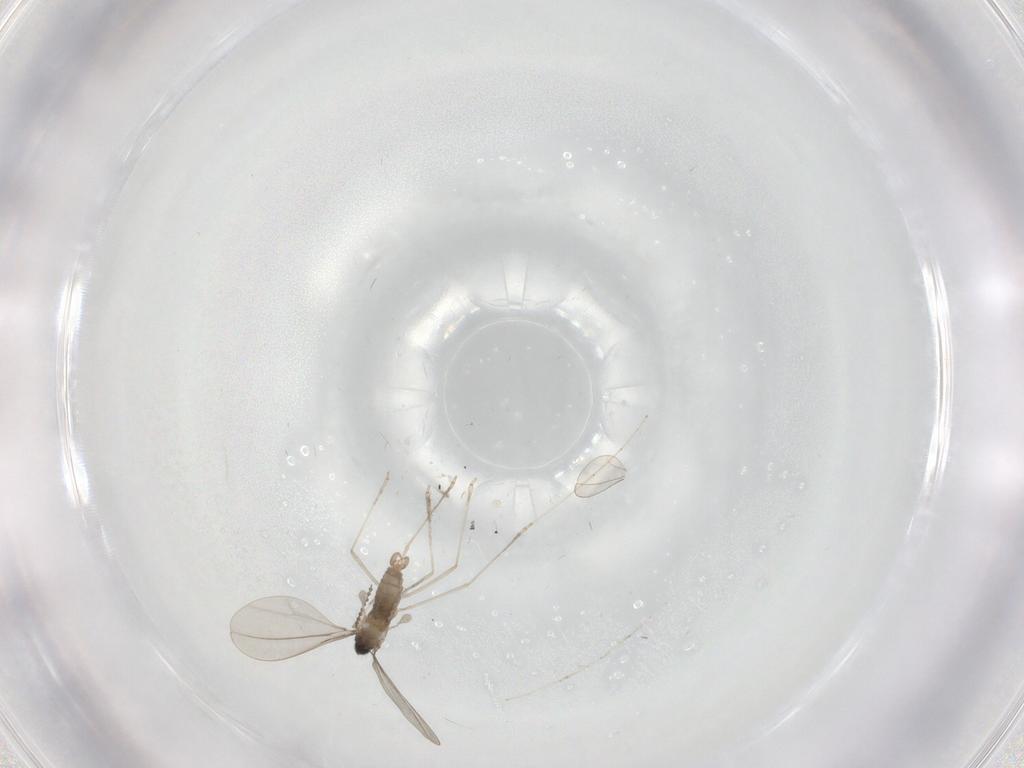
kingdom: Animalia
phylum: Arthropoda
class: Insecta
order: Diptera
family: Cecidomyiidae
